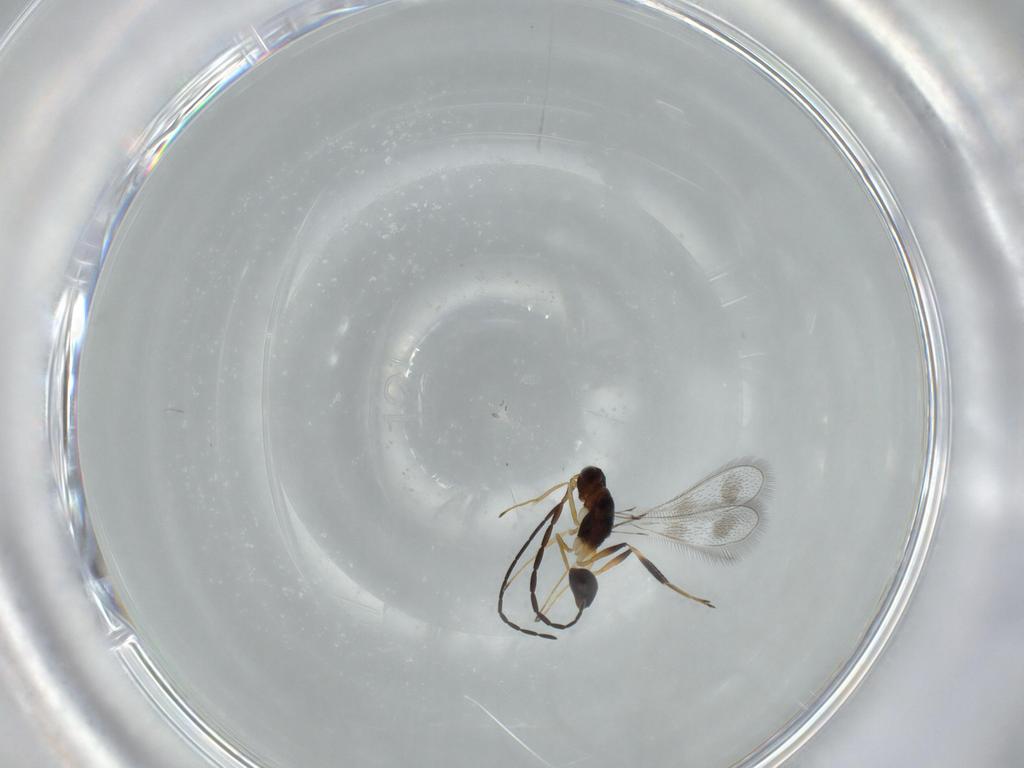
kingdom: Animalia
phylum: Arthropoda
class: Insecta
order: Hymenoptera
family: Mymaridae
